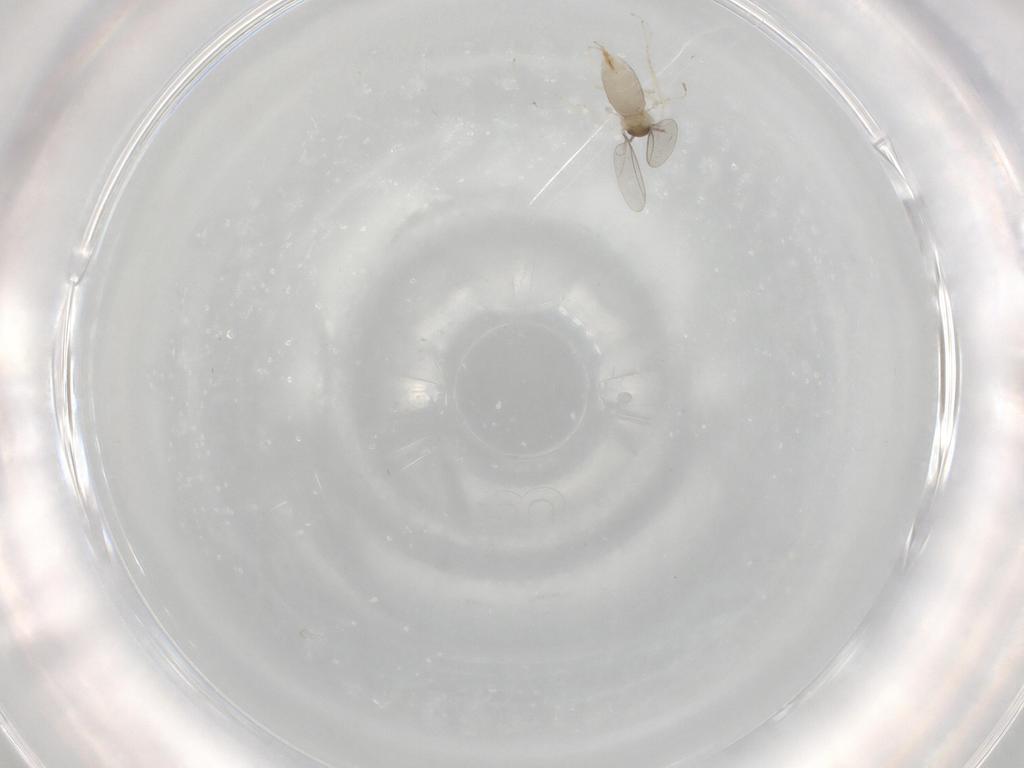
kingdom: Animalia
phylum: Arthropoda
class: Insecta
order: Diptera
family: Cecidomyiidae
